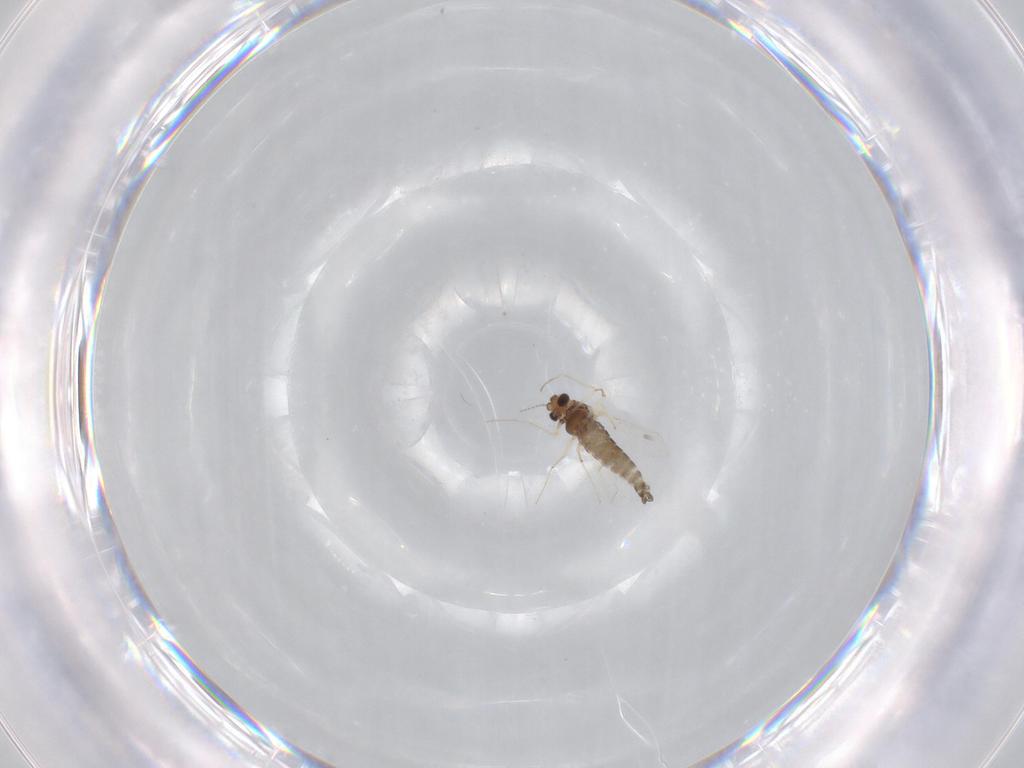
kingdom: Animalia
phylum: Arthropoda
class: Insecta
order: Diptera
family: Chironomidae
